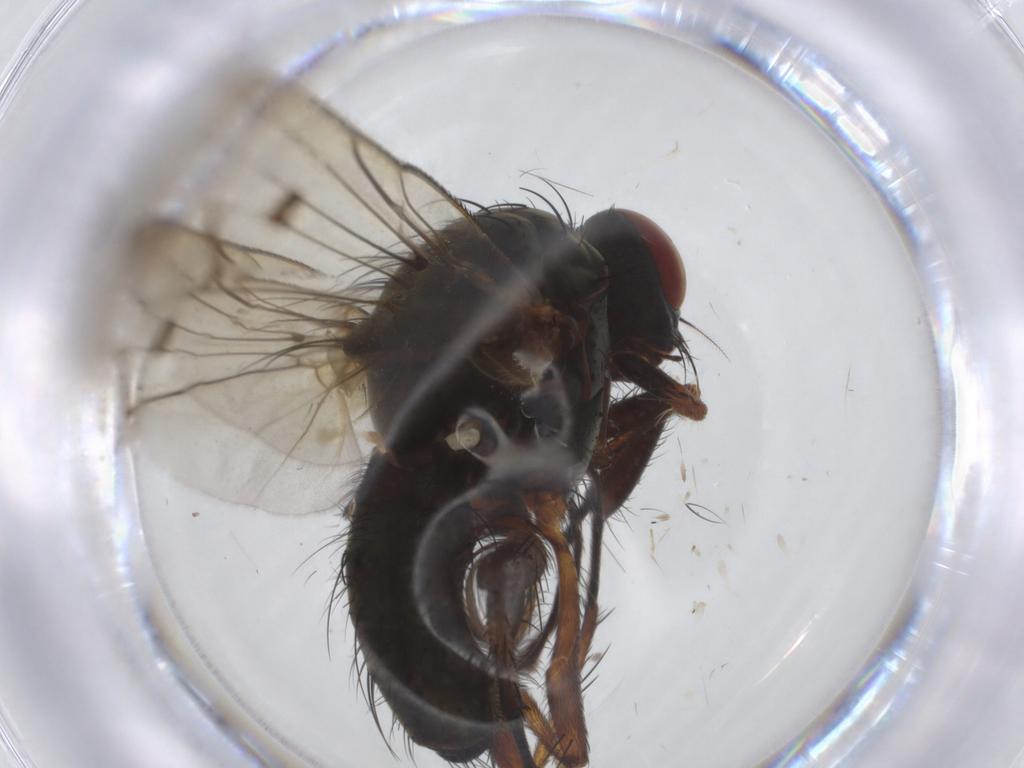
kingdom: Animalia
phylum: Arthropoda
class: Insecta
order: Diptera
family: Anthomyiidae
